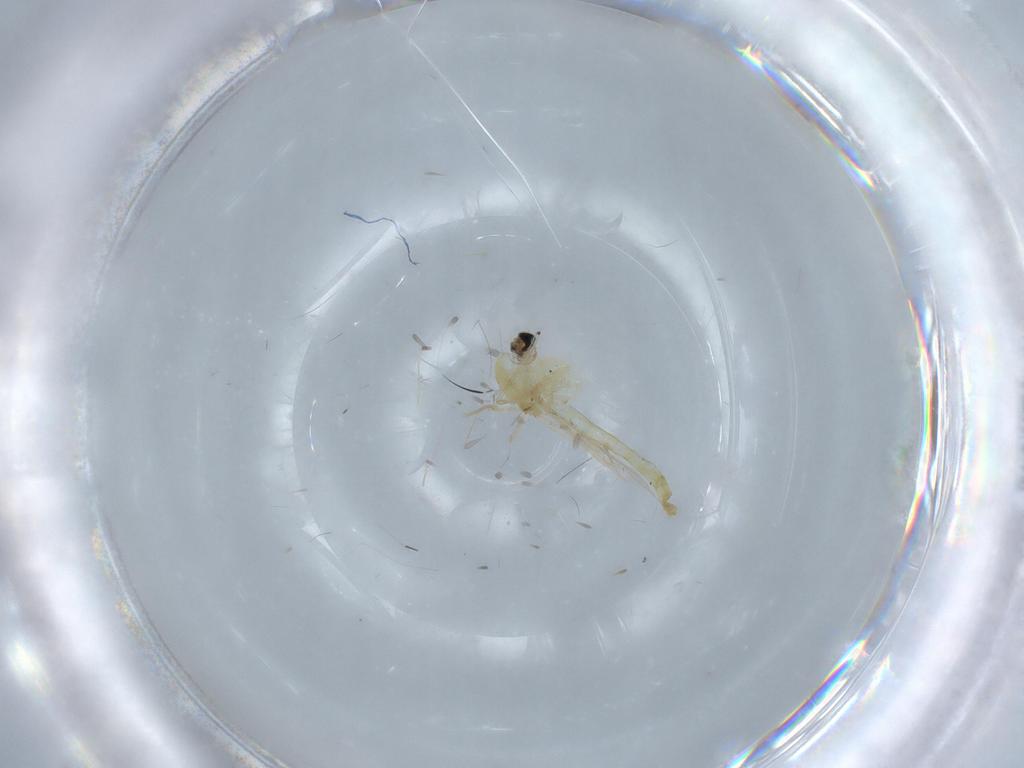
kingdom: Animalia
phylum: Arthropoda
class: Insecta
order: Diptera
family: Chironomidae
